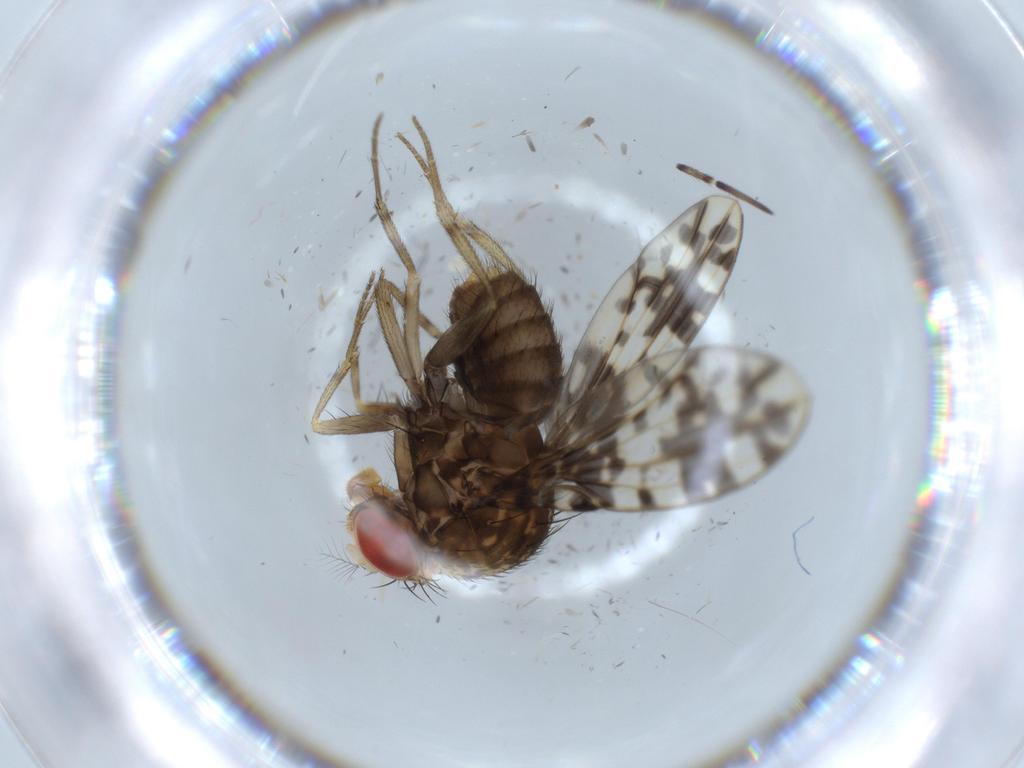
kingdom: Animalia
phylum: Arthropoda
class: Insecta
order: Diptera
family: Drosophilidae
